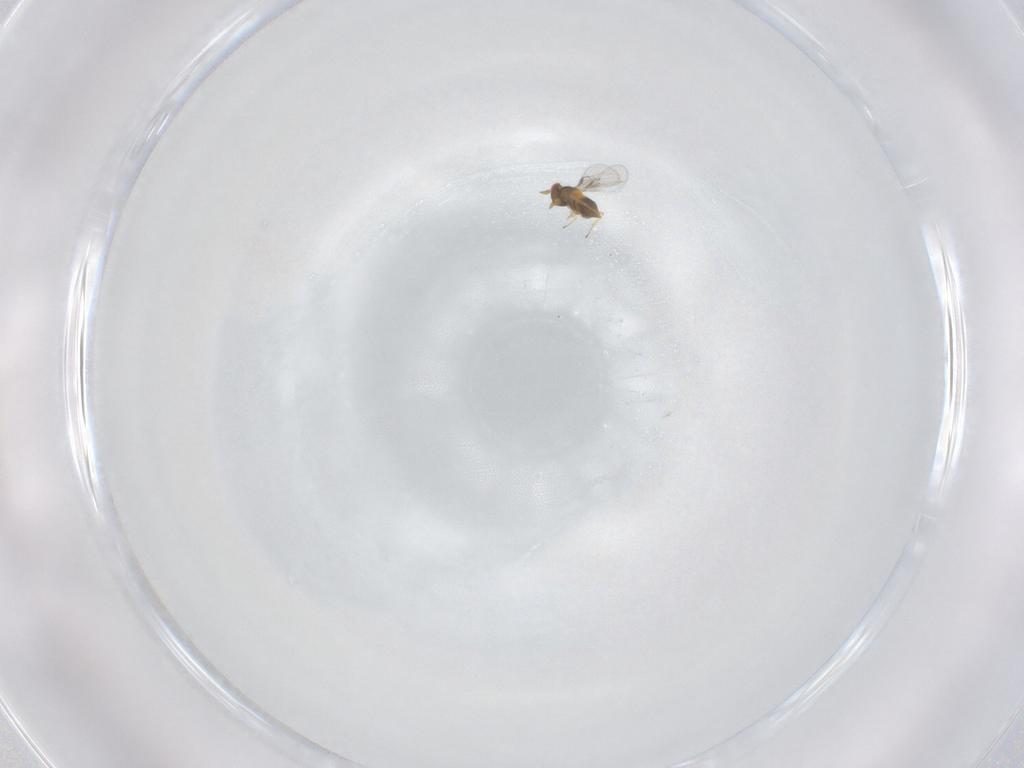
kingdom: Animalia
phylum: Arthropoda
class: Insecta
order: Hymenoptera
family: Trichogrammatidae
